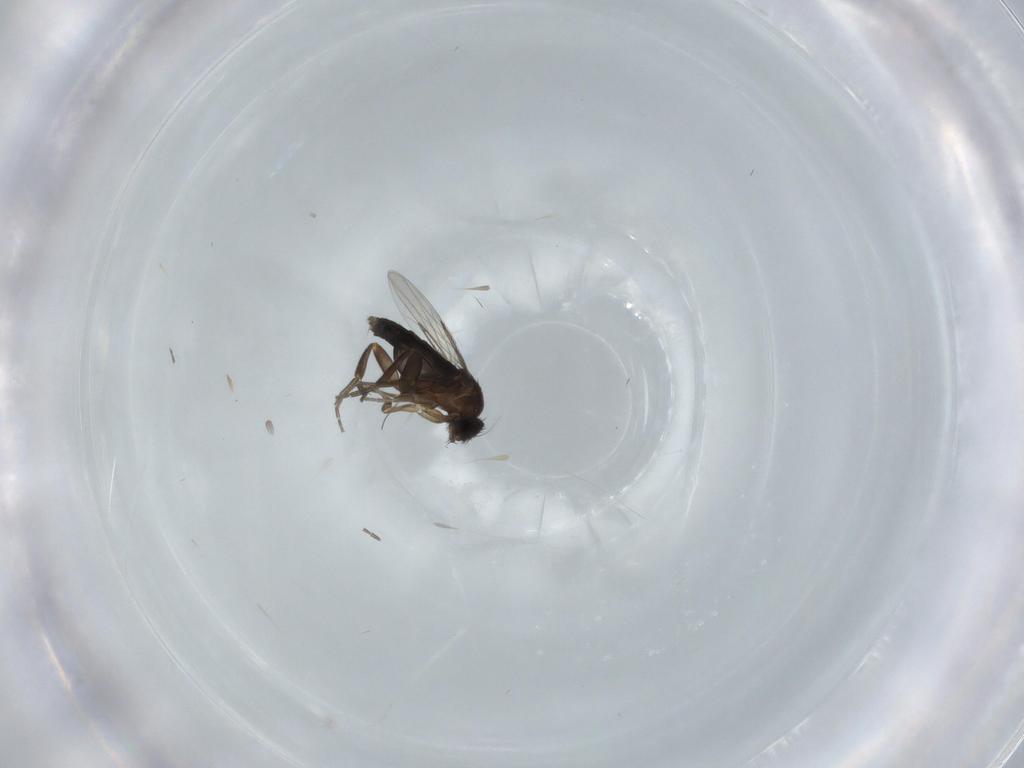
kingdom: Animalia
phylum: Arthropoda
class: Insecta
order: Diptera
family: Phoridae
